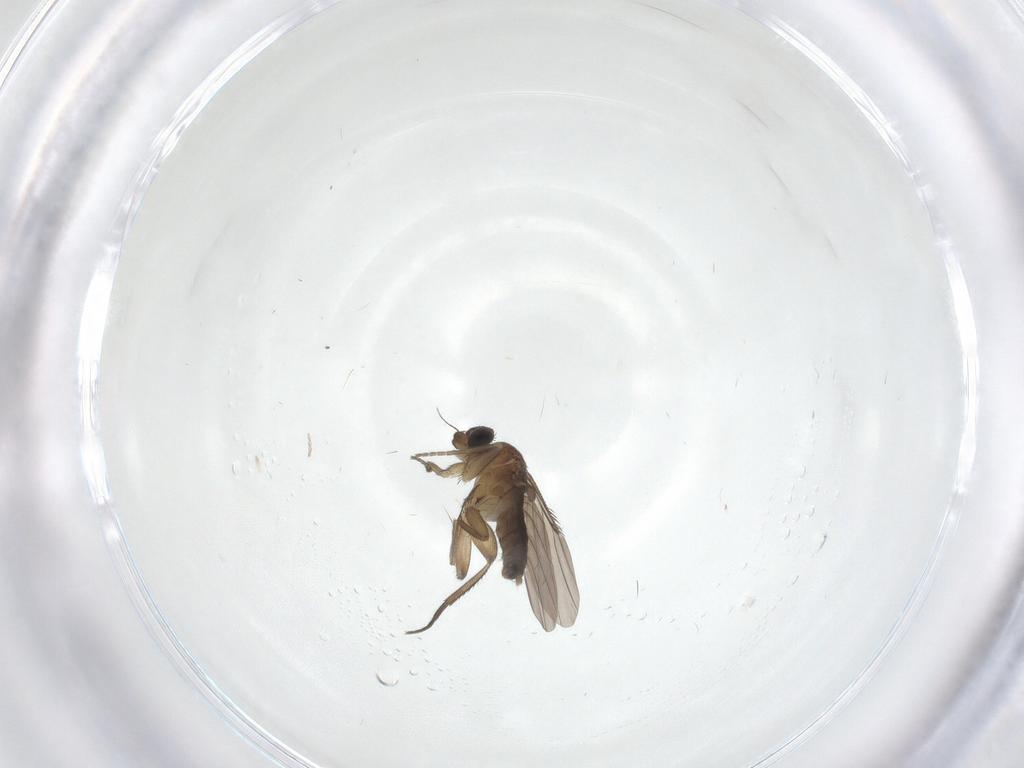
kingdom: Animalia
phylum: Arthropoda
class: Insecta
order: Diptera
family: Phoridae
